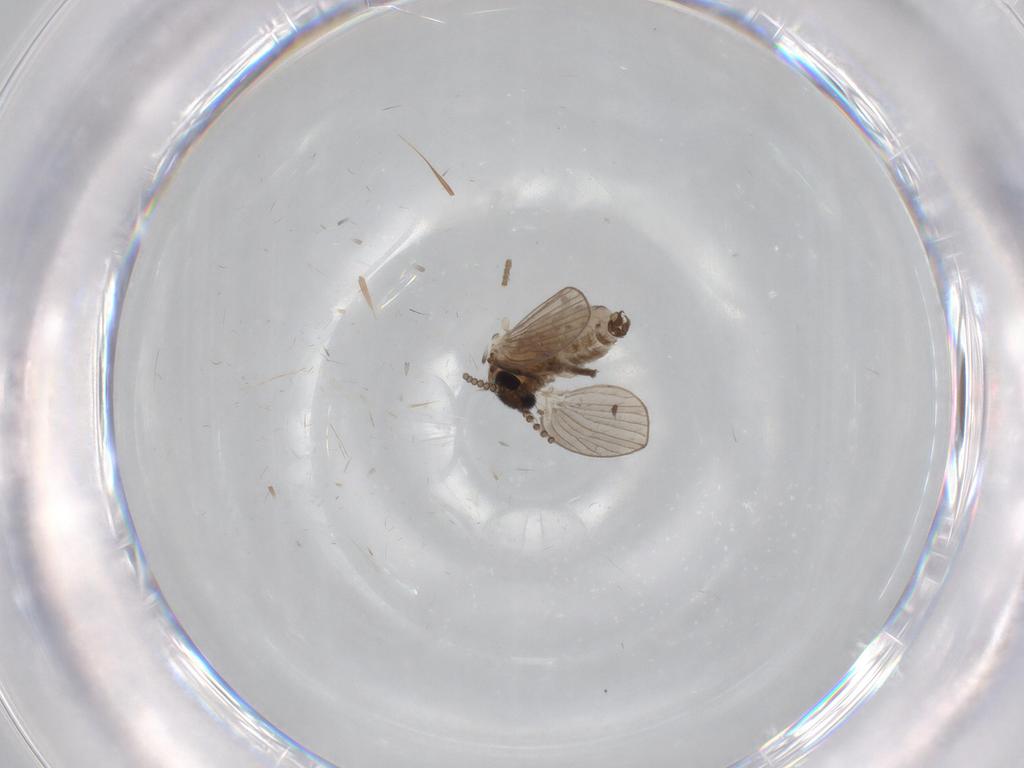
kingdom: Animalia
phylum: Arthropoda
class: Insecta
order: Diptera
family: Psychodidae
